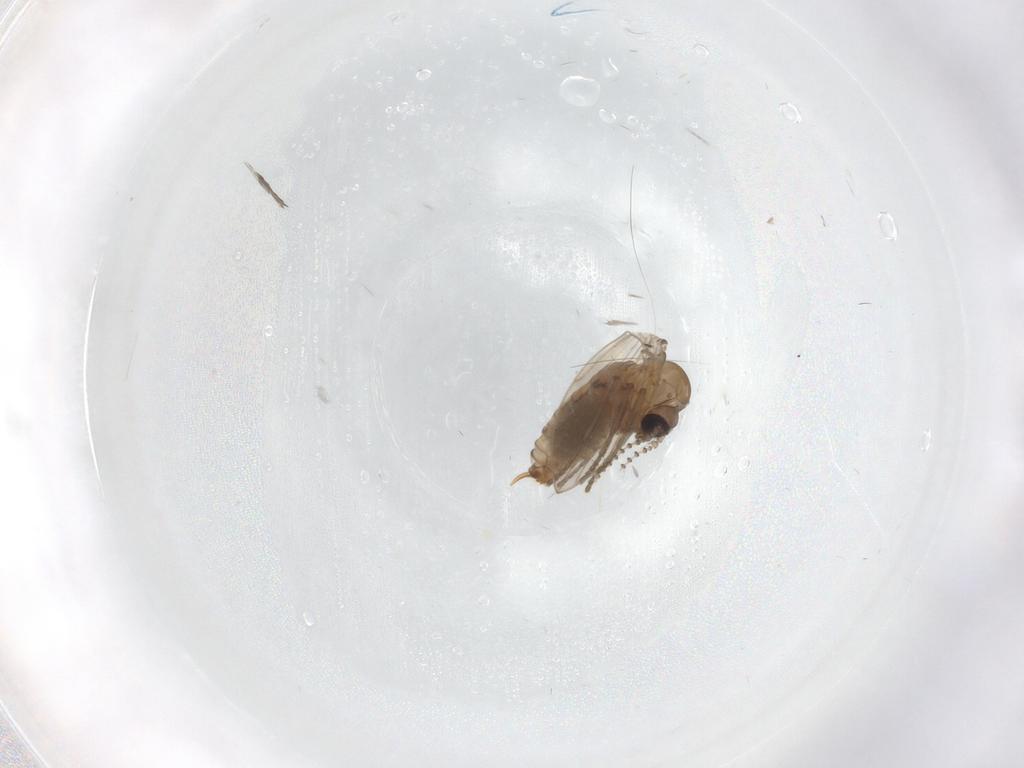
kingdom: Animalia
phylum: Arthropoda
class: Insecta
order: Diptera
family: Psychodidae
